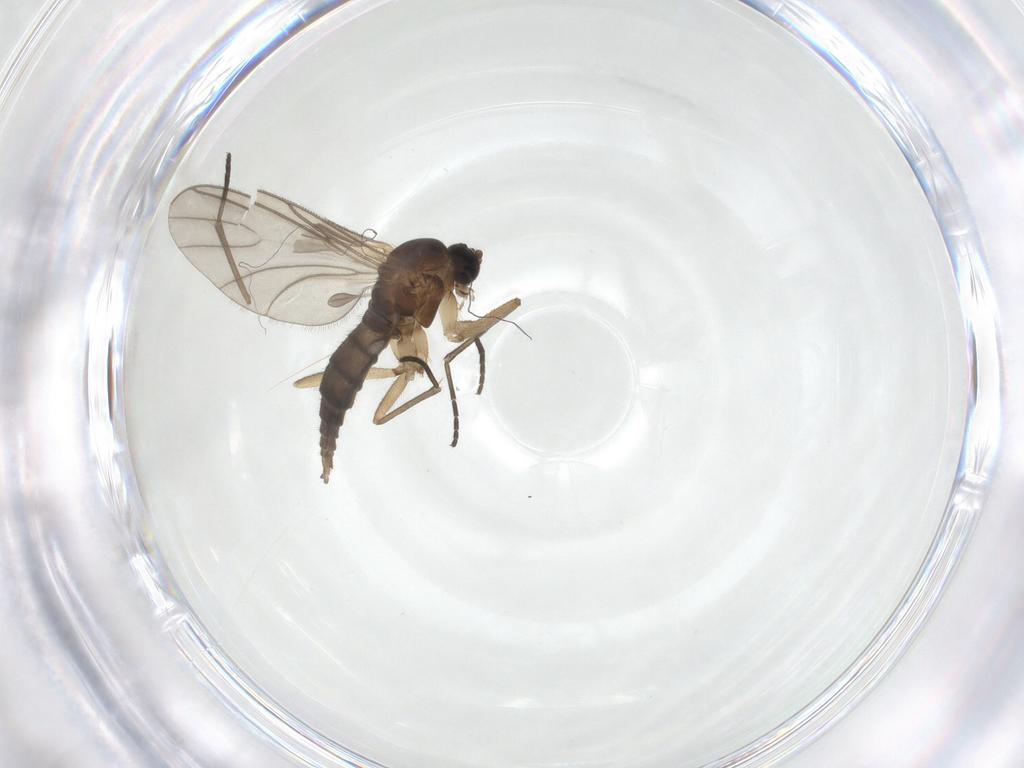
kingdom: Animalia
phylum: Arthropoda
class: Insecta
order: Diptera
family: Sciaridae
